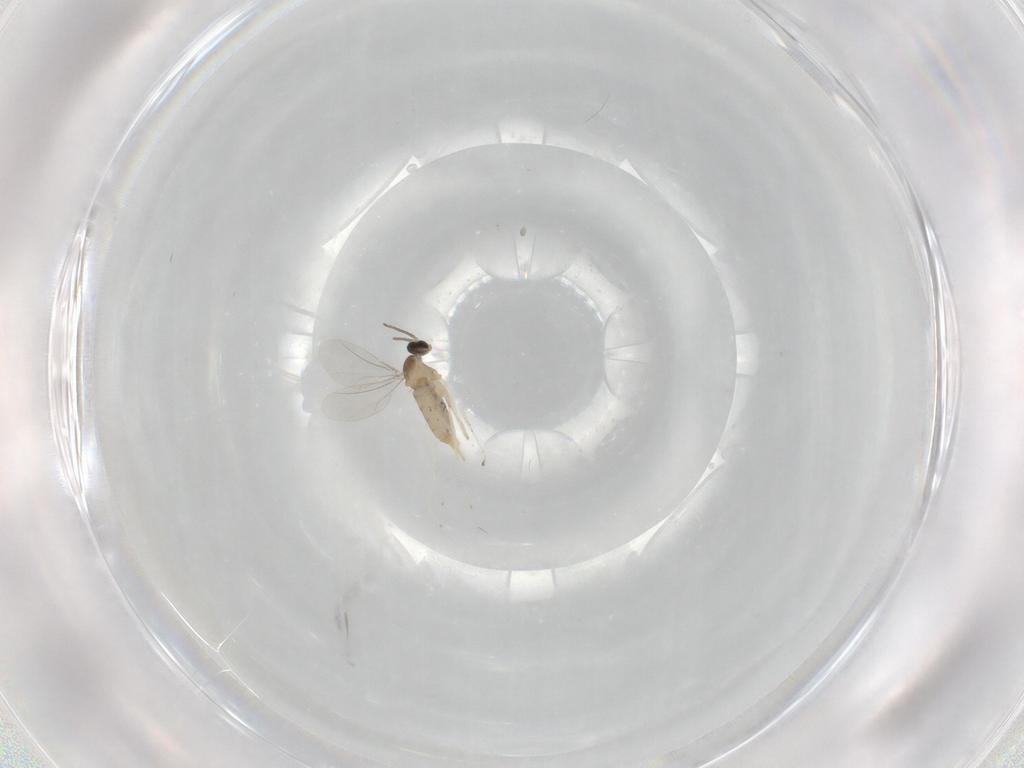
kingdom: Animalia
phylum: Arthropoda
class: Insecta
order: Diptera
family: Cecidomyiidae
